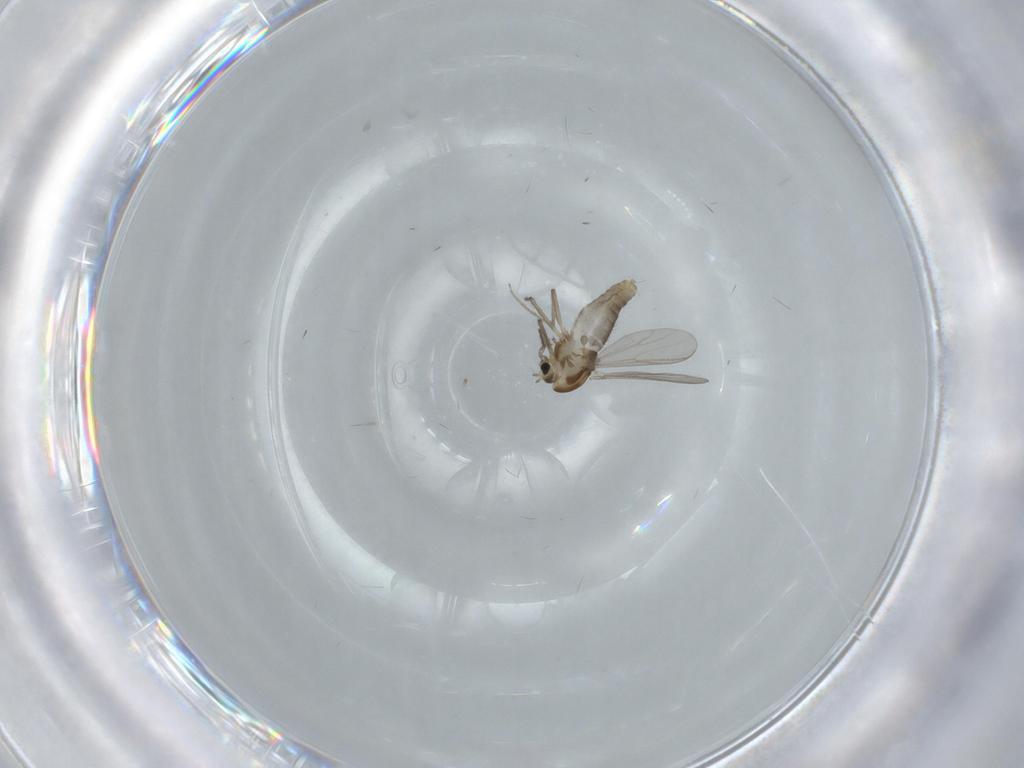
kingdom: Animalia
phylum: Arthropoda
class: Insecta
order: Diptera
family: Chironomidae
